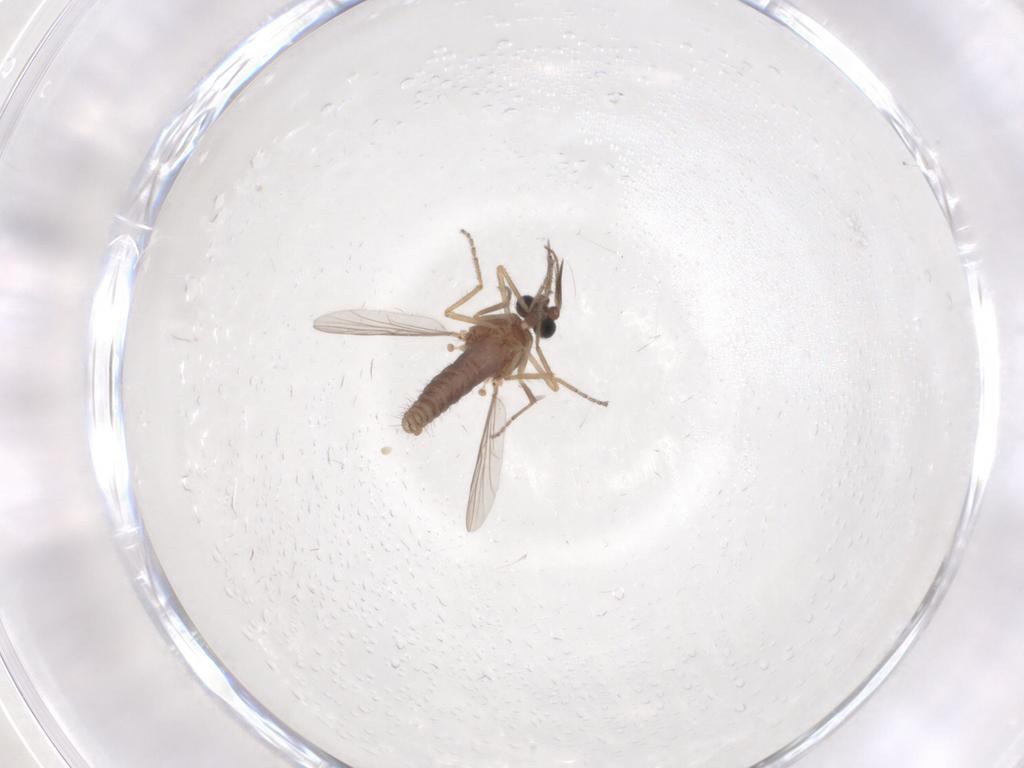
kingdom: Animalia
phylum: Arthropoda
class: Insecta
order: Diptera
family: Ceratopogonidae
